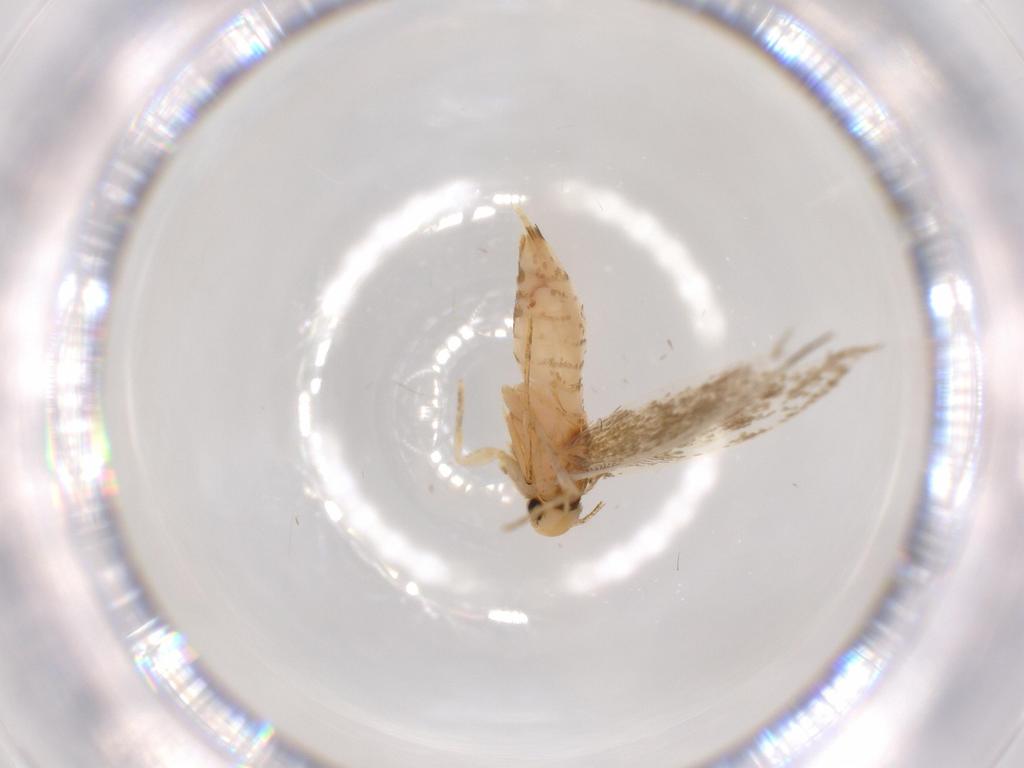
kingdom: Animalia
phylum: Arthropoda
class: Insecta
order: Lepidoptera
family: Tineidae
